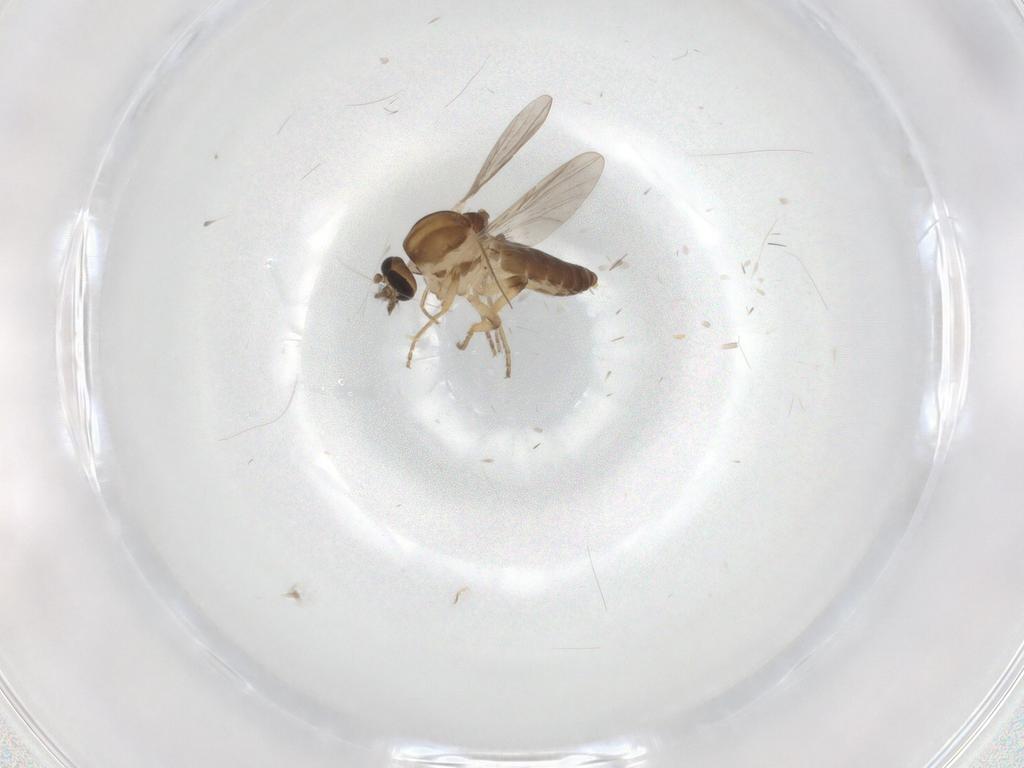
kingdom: Animalia
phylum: Arthropoda
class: Insecta
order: Diptera
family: Ceratopogonidae
